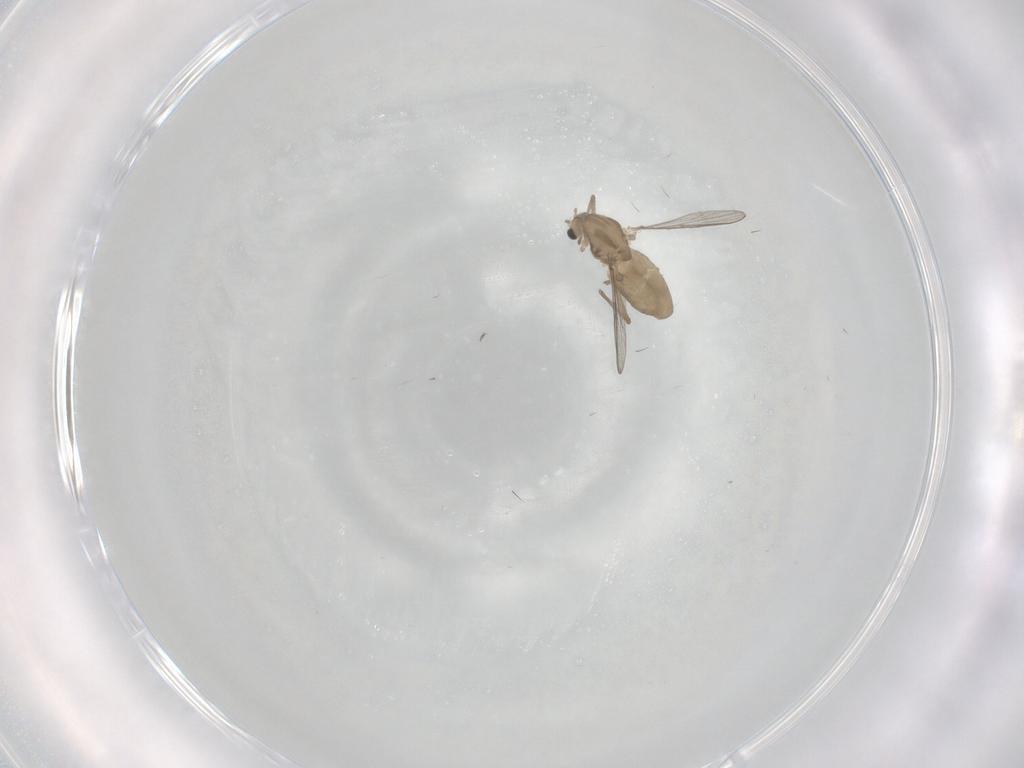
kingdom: Animalia
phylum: Arthropoda
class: Insecta
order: Diptera
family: Chironomidae
